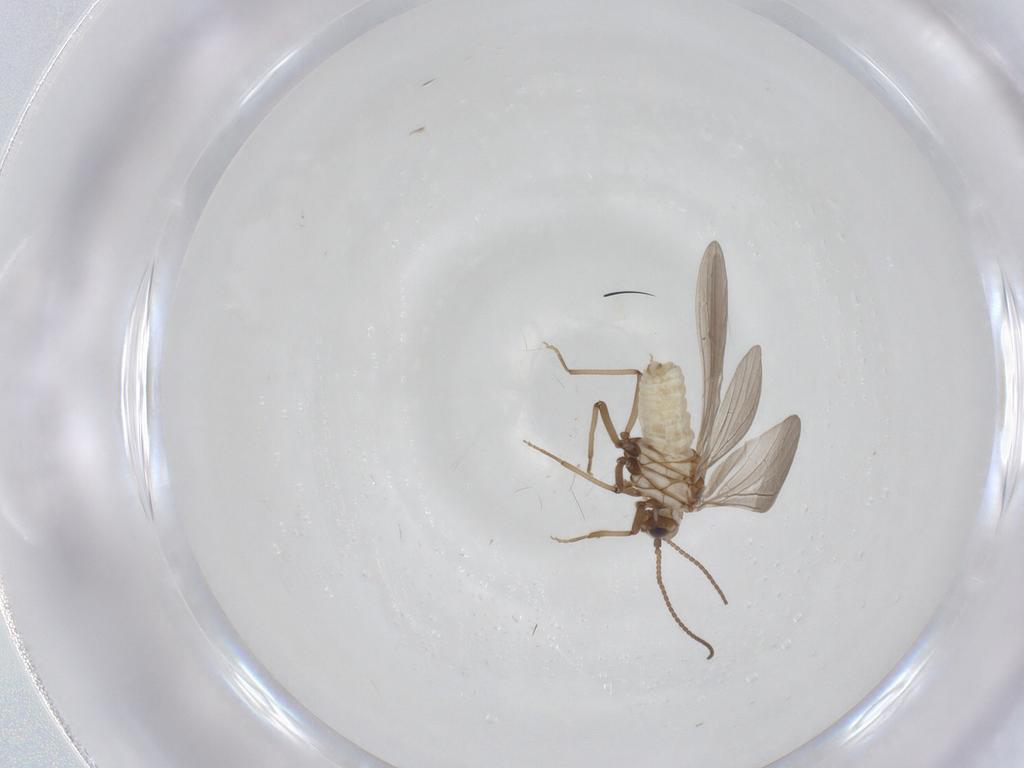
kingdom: Animalia
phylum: Arthropoda
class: Insecta
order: Neuroptera
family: Coniopterygidae
